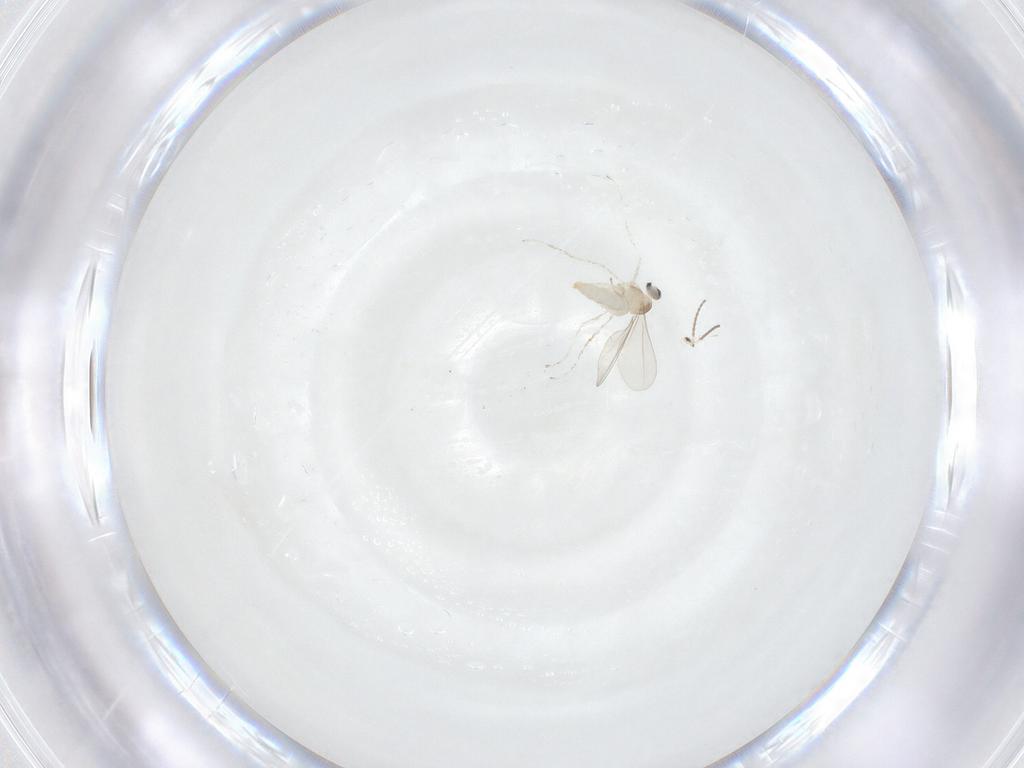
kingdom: Animalia
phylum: Arthropoda
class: Insecta
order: Diptera
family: Cecidomyiidae
